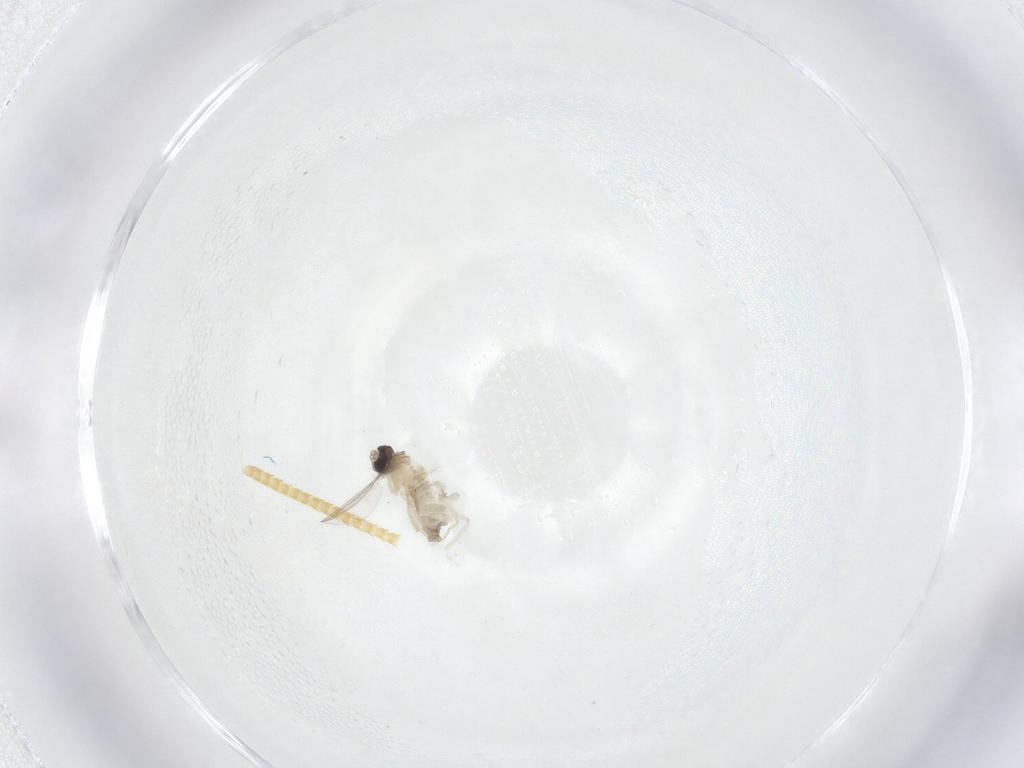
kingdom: Animalia
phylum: Arthropoda
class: Insecta
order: Diptera
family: Cecidomyiidae
